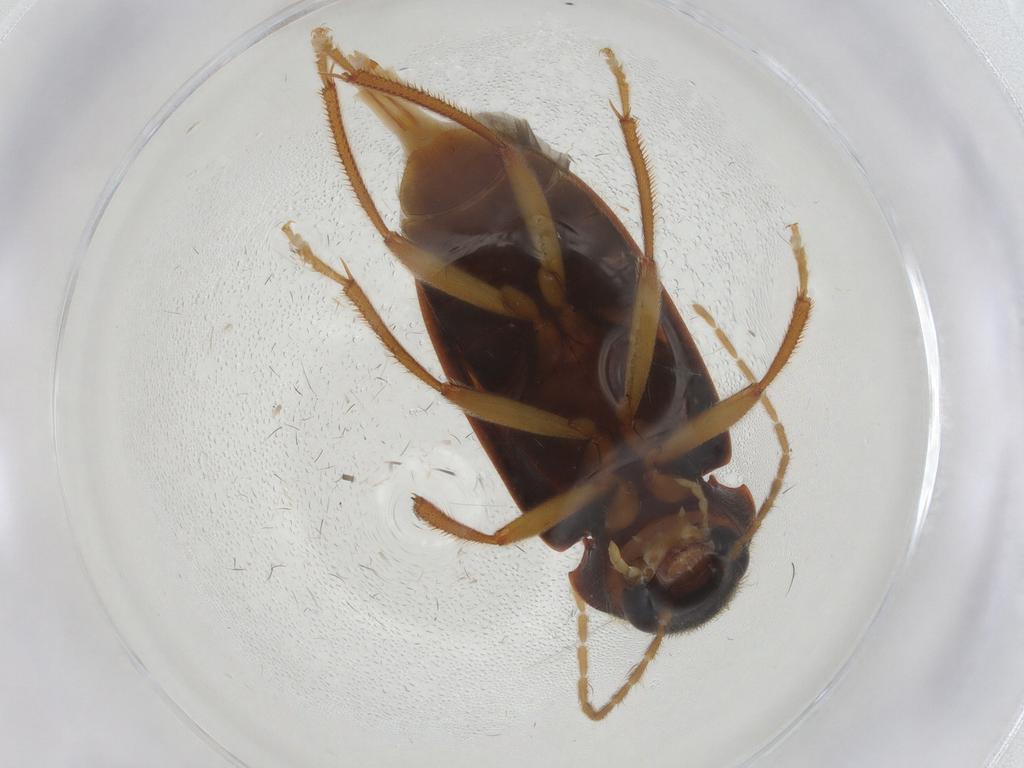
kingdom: Animalia
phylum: Arthropoda
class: Insecta
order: Coleoptera
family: Ptilodactylidae
